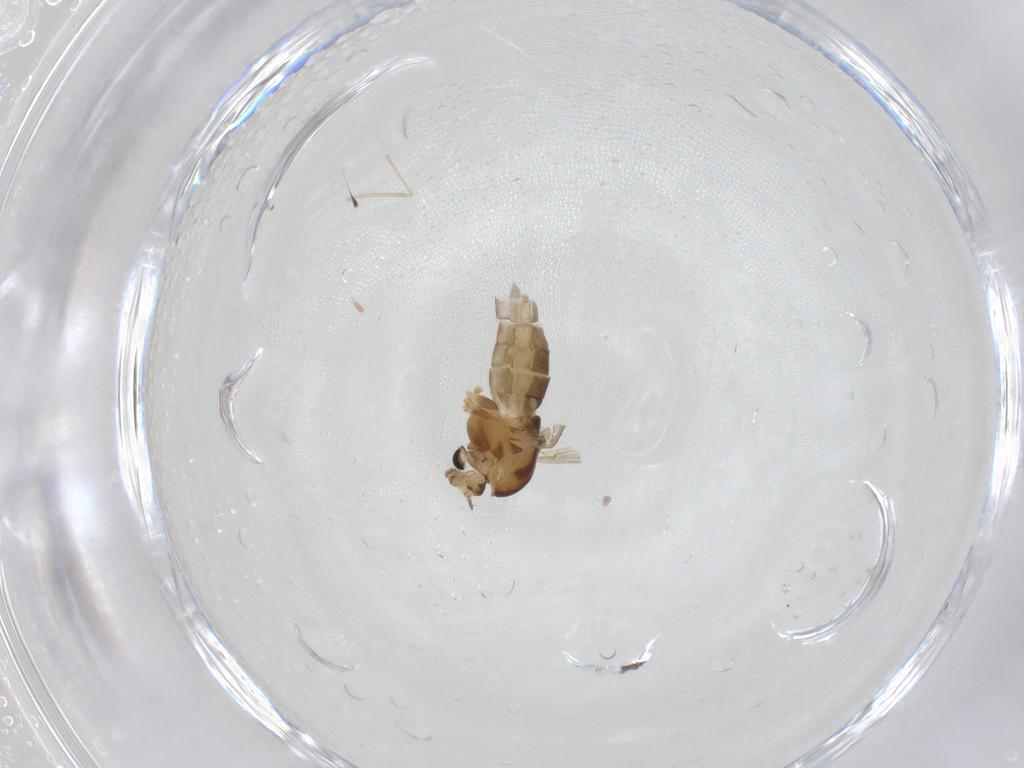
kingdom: Animalia
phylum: Arthropoda
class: Insecta
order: Diptera
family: Chironomidae
